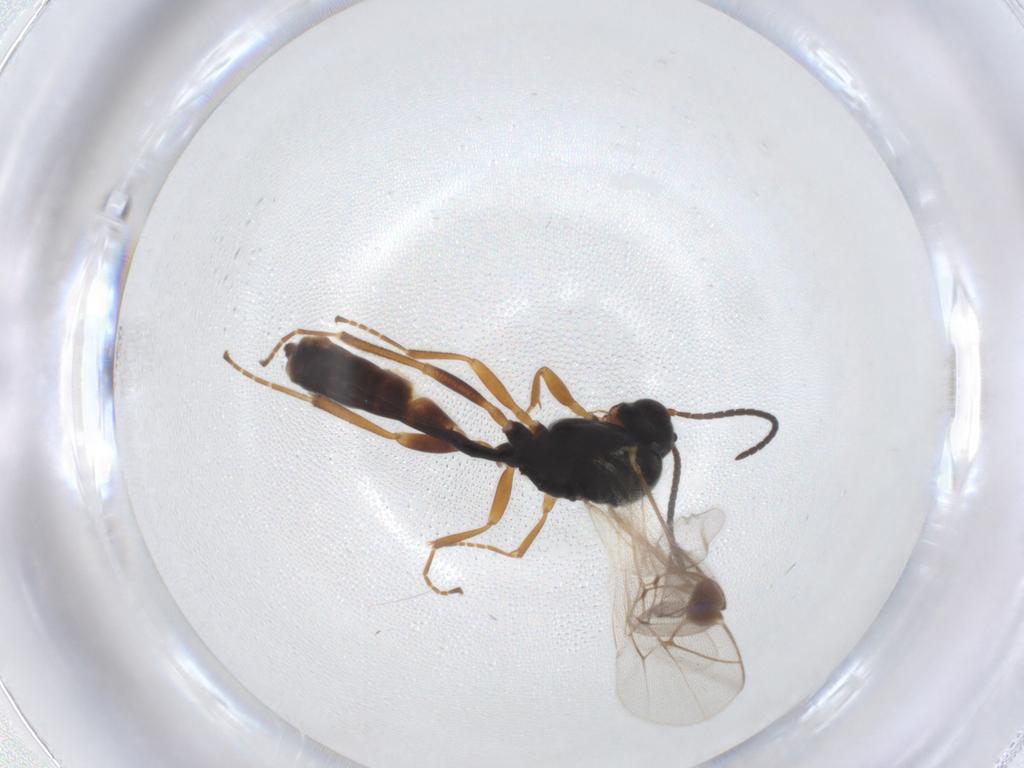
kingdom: Animalia
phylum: Arthropoda
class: Insecta
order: Hymenoptera
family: Ichneumonidae
